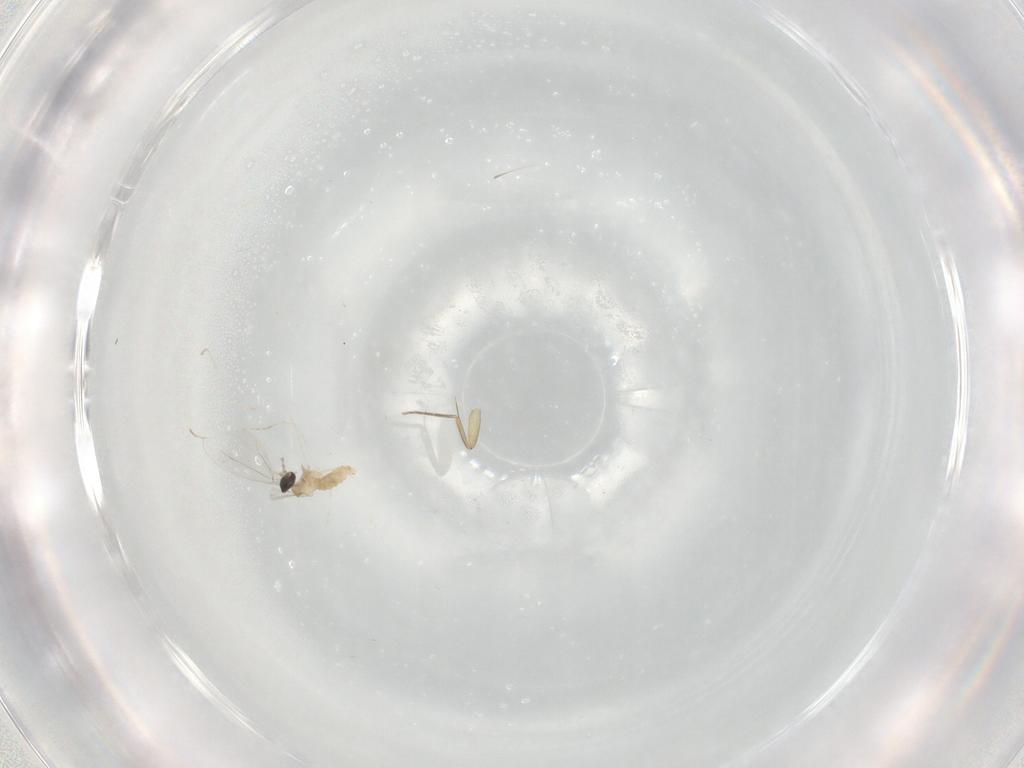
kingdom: Animalia
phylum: Arthropoda
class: Insecta
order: Diptera
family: Cecidomyiidae
